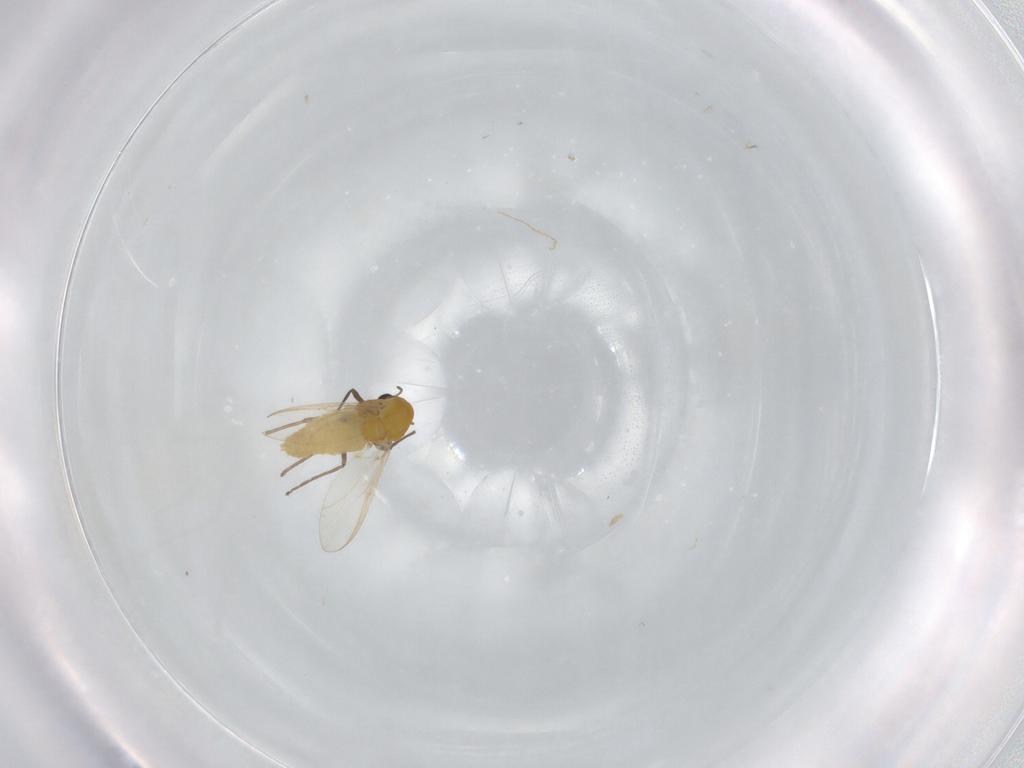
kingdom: Animalia
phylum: Arthropoda
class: Insecta
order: Diptera
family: Chironomidae
